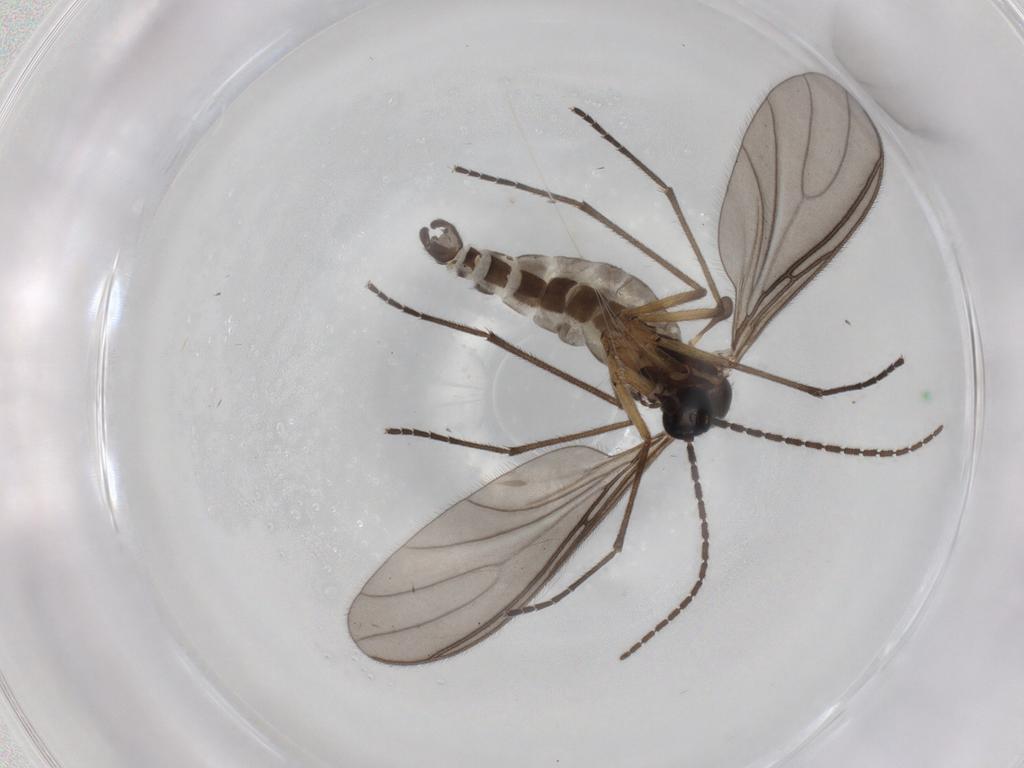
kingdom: Animalia
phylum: Arthropoda
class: Insecta
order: Diptera
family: Sciaridae
